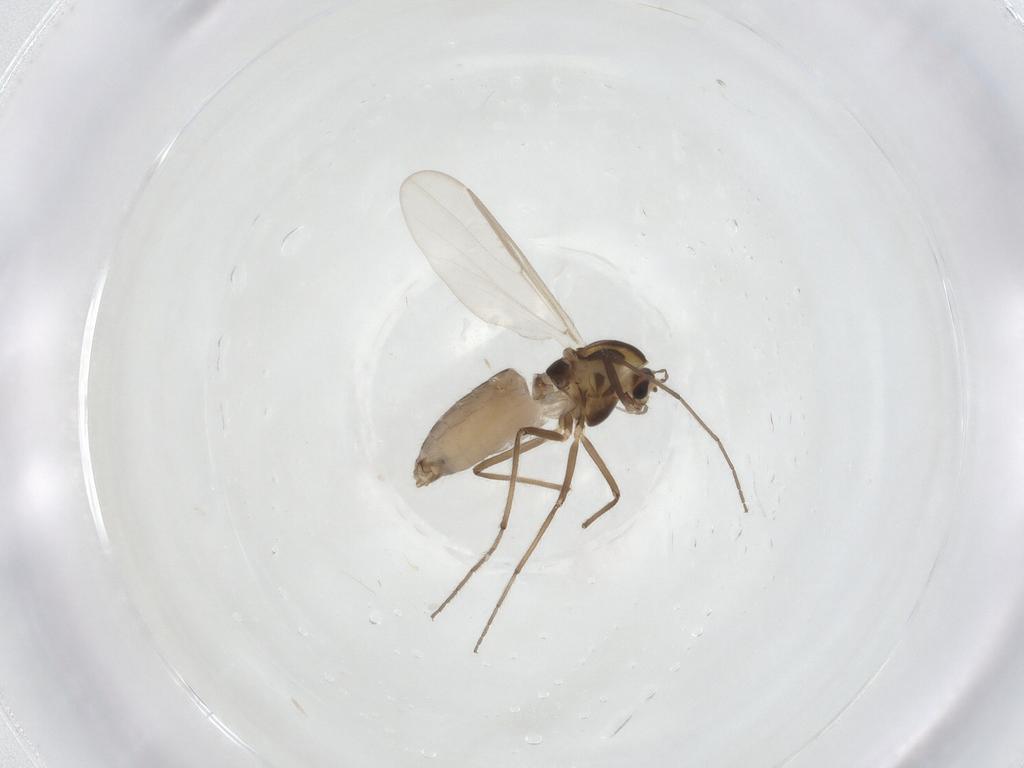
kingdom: Animalia
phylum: Arthropoda
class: Insecta
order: Diptera
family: Chironomidae
